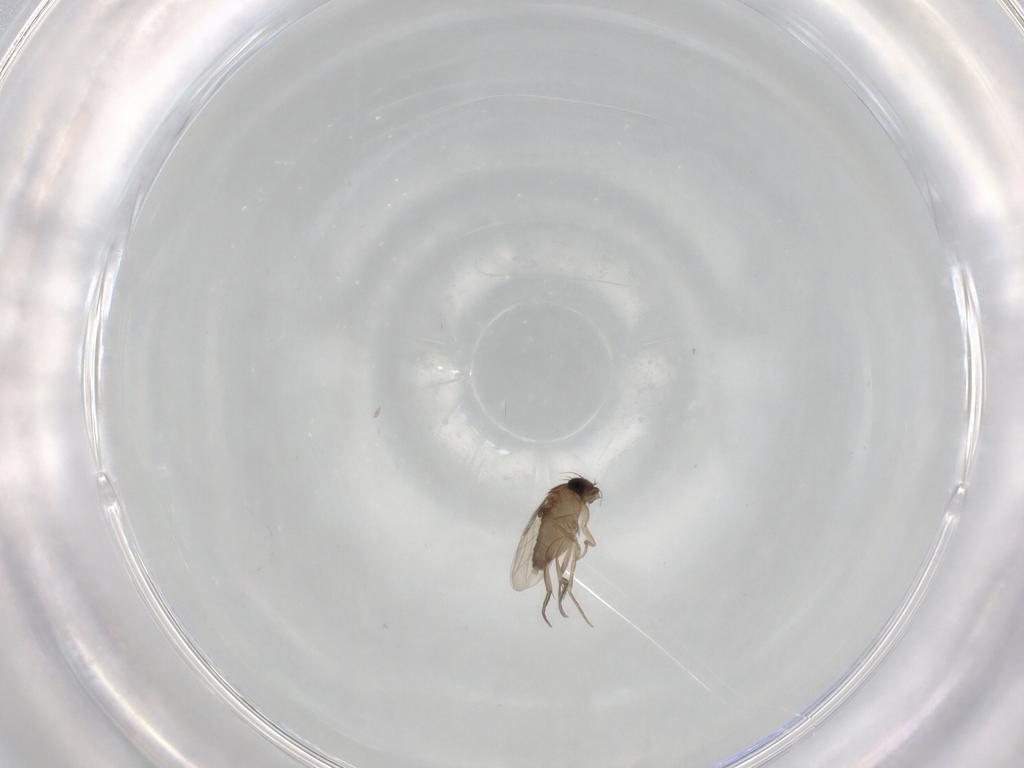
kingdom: Animalia
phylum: Arthropoda
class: Insecta
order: Diptera
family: Phoridae
